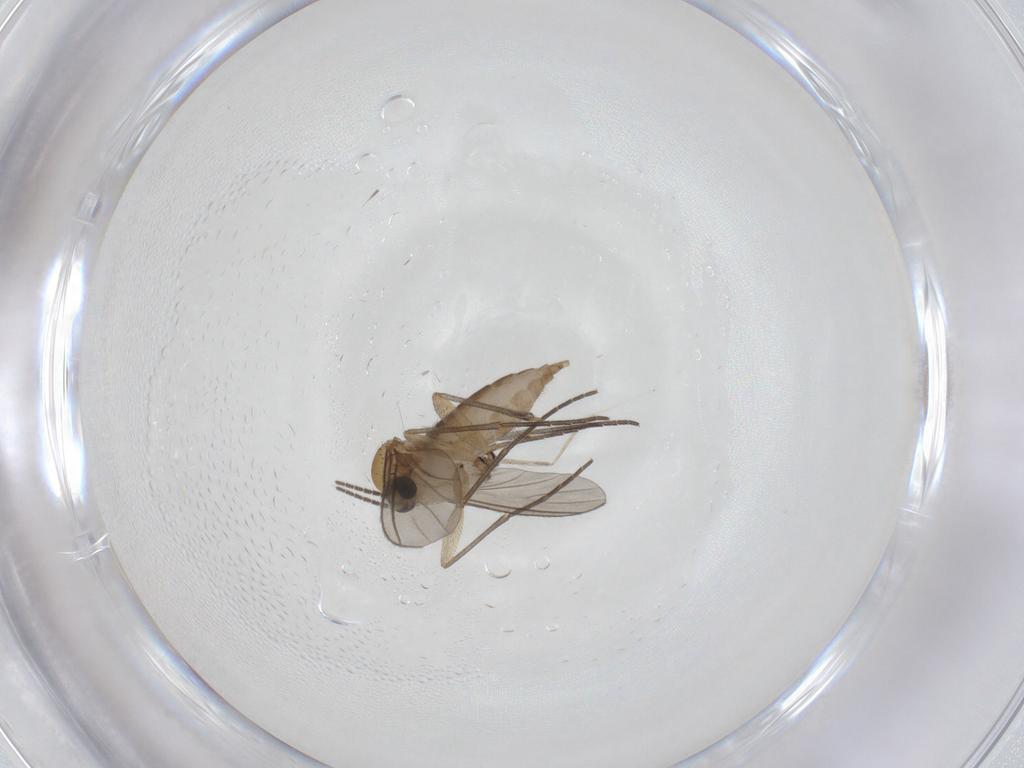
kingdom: Animalia
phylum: Arthropoda
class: Insecta
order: Diptera
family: Sciaridae
